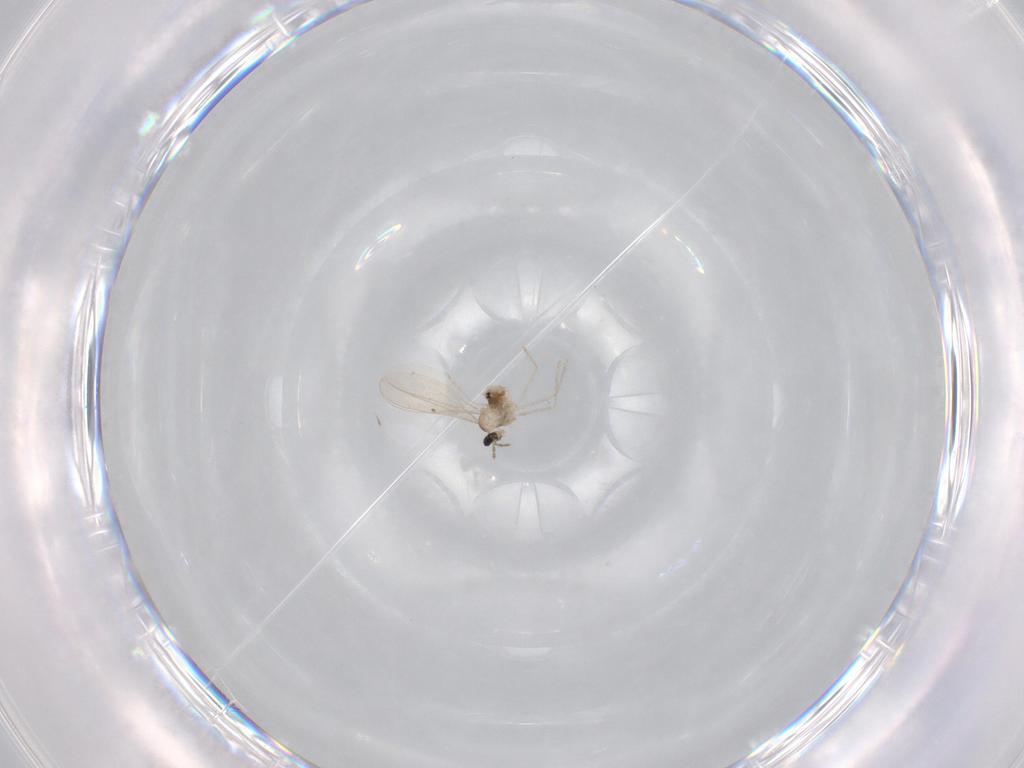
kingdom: Animalia
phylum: Arthropoda
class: Insecta
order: Diptera
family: Chironomidae
